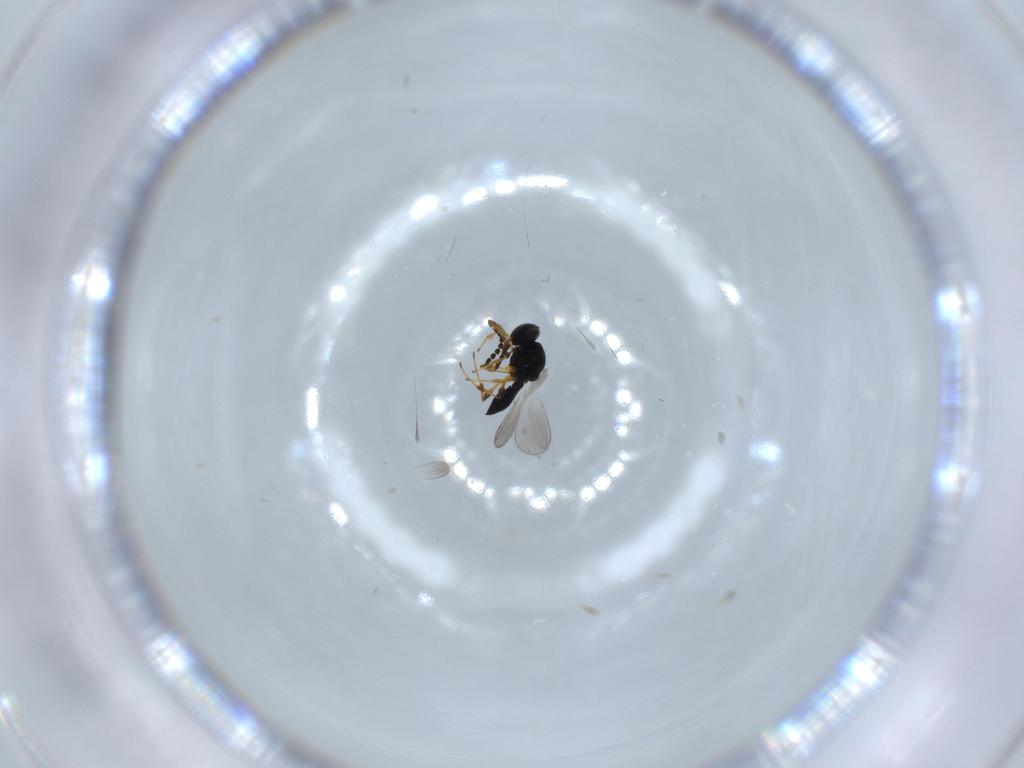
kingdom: Animalia
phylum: Arthropoda
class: Insecta
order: Hymenoptera
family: Platygastridae
